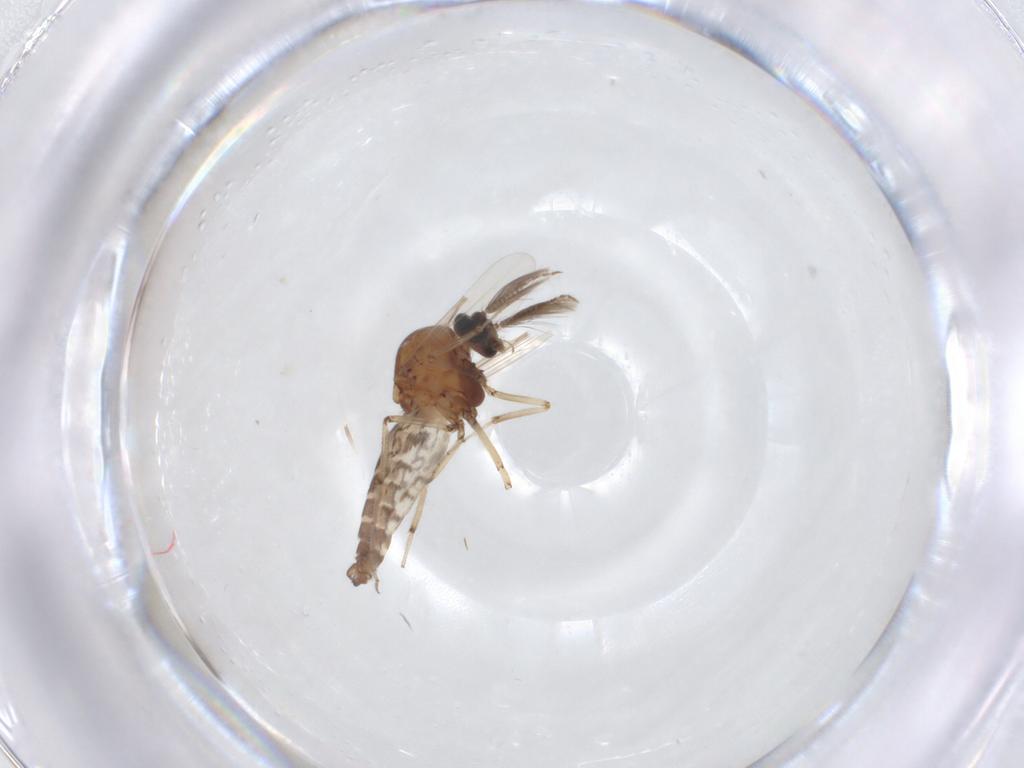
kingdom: Animalia
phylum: Arthropoda
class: Insecta
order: Diptera
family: Ceratopogonidae
